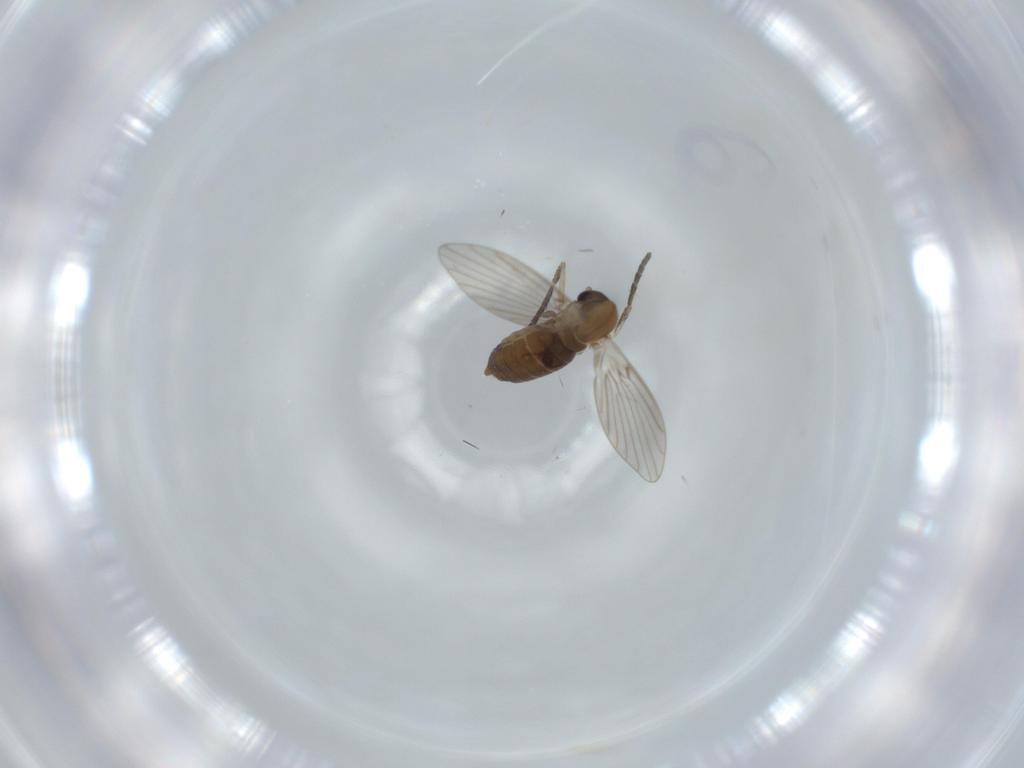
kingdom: Animalia
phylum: Arthropoda
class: Insecta
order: Diptera
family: Psychodidae
